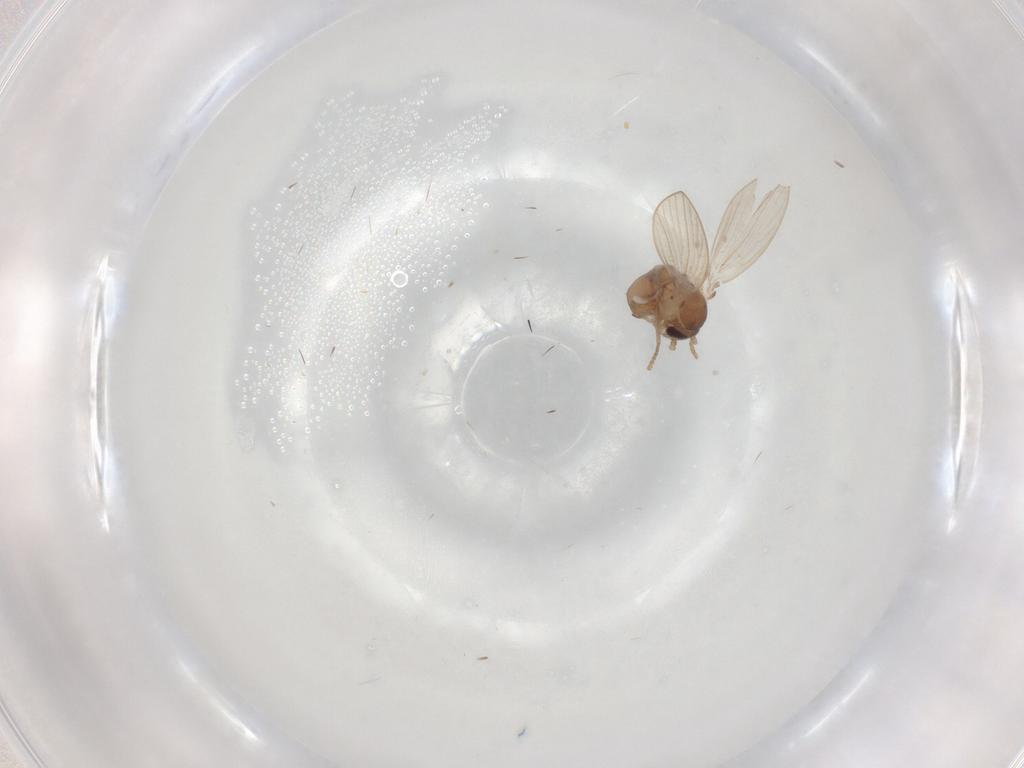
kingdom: Animalia
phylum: Arthropoda
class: Insecta
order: Diptera
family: Psychodidae
